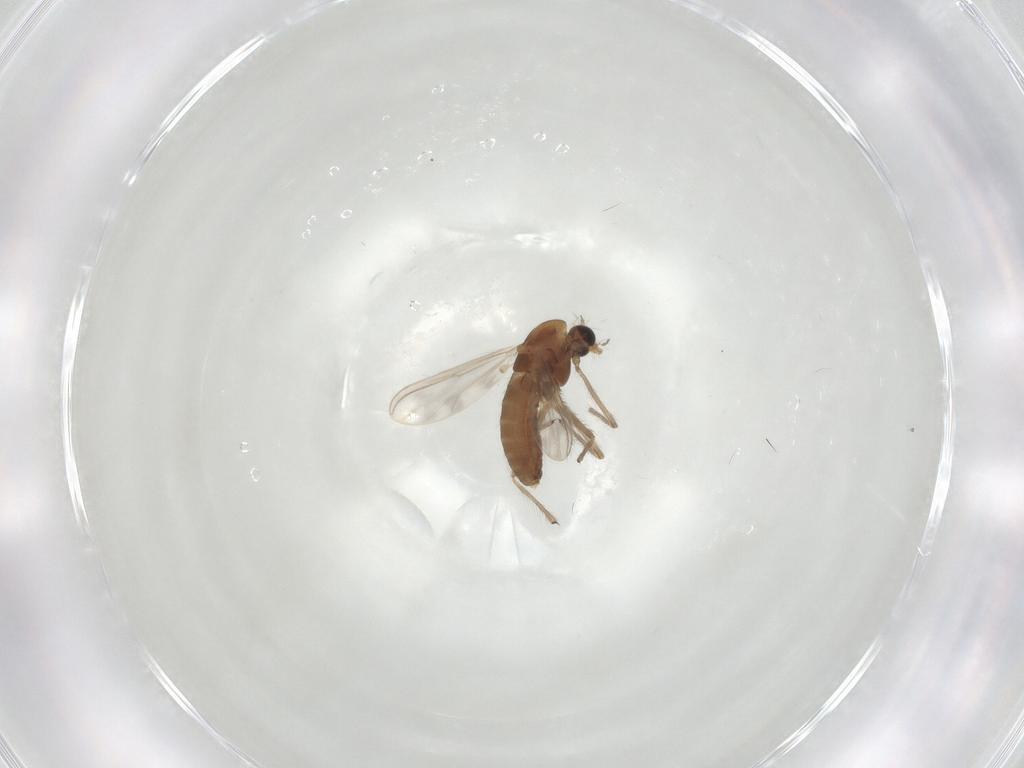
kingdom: Animalia
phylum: Arthropoda
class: Insecta
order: Diptera
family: Chironomidae
